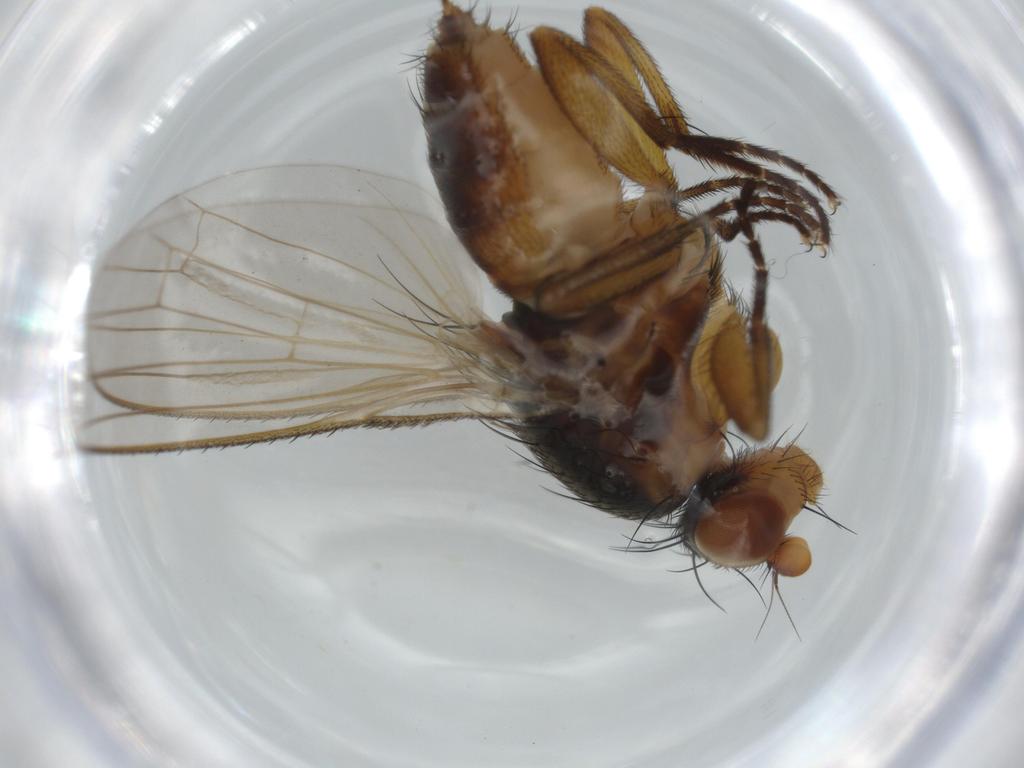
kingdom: Animalia
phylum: Arthropoda
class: Insecta
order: Diptera
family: Heleomyzidae
